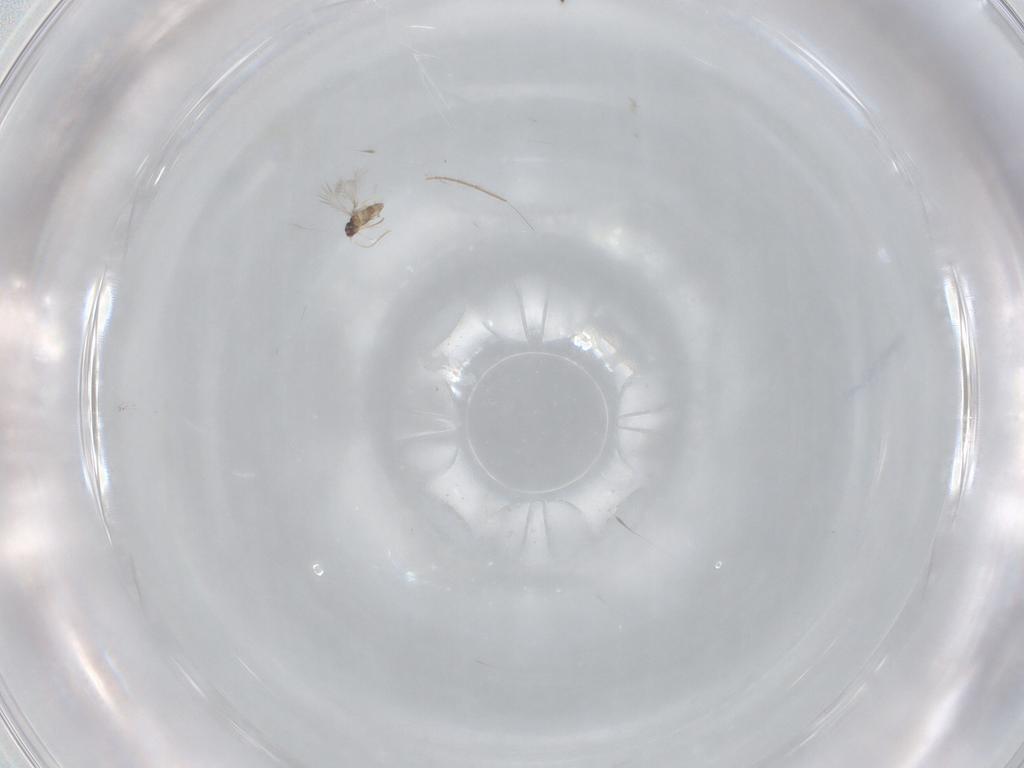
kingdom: Animalia
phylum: Arthropoda
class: Insecta
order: Hymenoptera
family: Mymaridae
